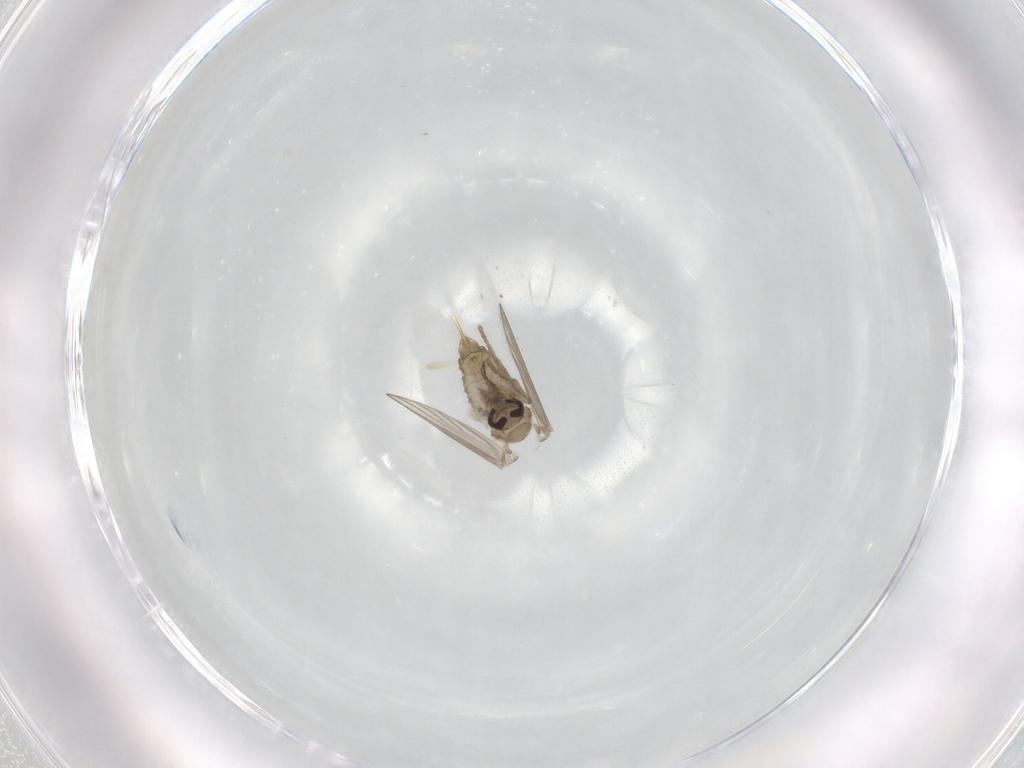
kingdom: Animalia
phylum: Arthropoda
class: Insecta
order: Diptera
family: Psychodidae
